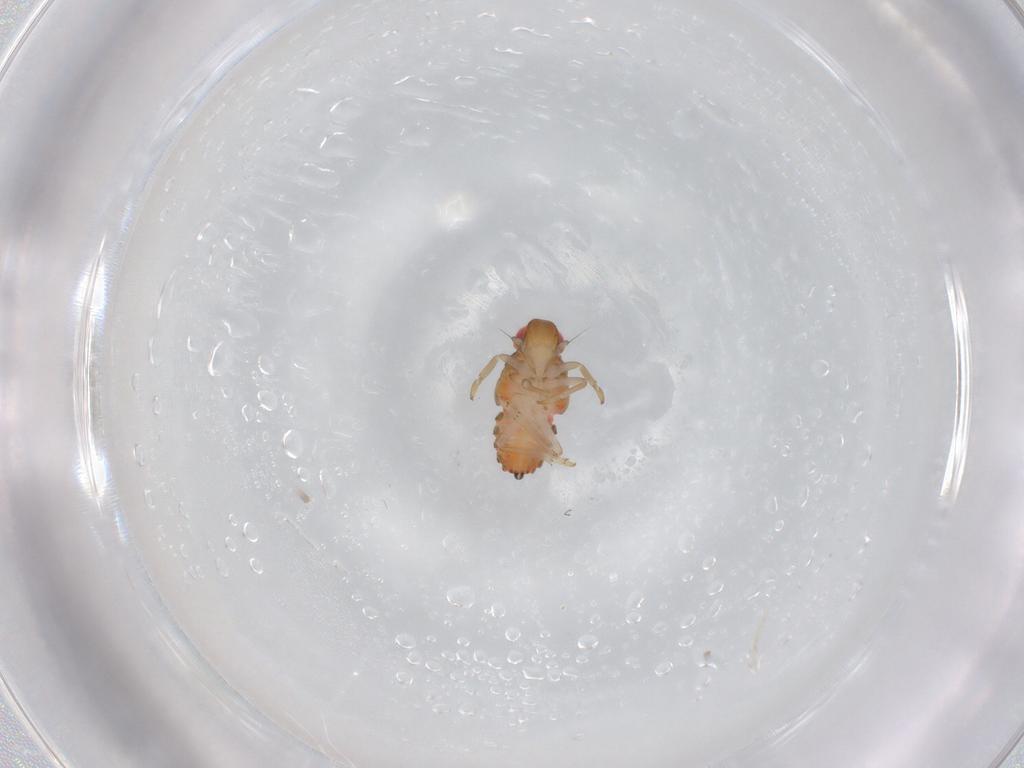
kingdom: Animalia
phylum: Arthropoda
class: Insecta
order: Hemiptera
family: Issidae
